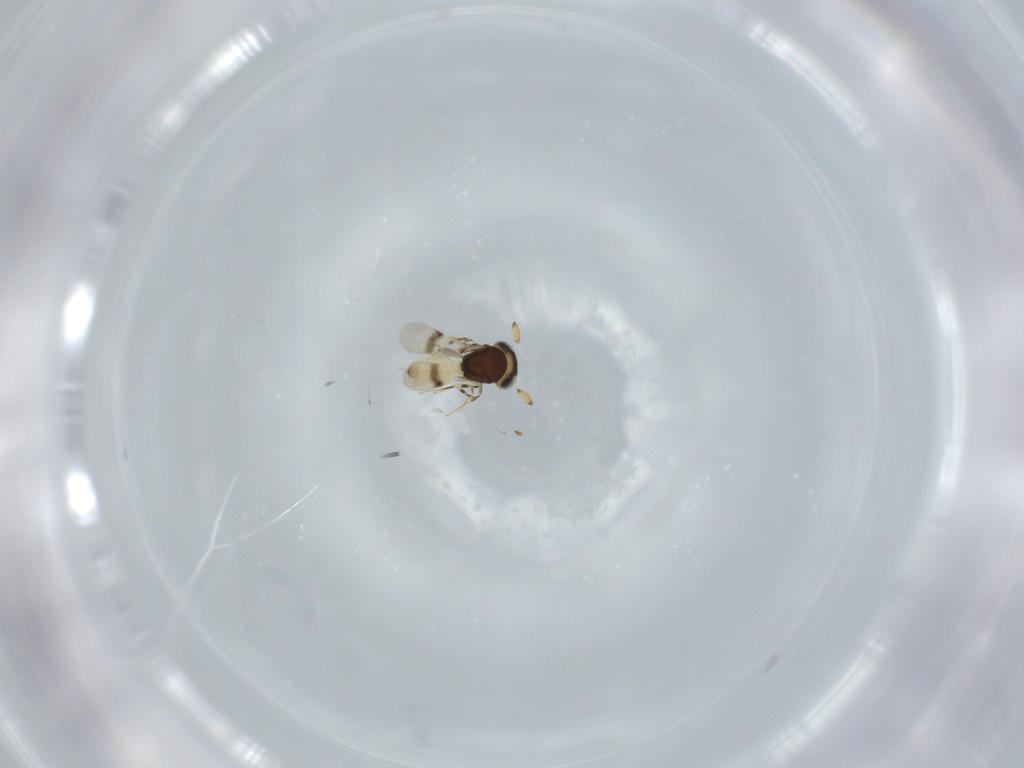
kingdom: Animalia
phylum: Arthropoda
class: Insecta
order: Hymenoptera
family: Scelionidae
